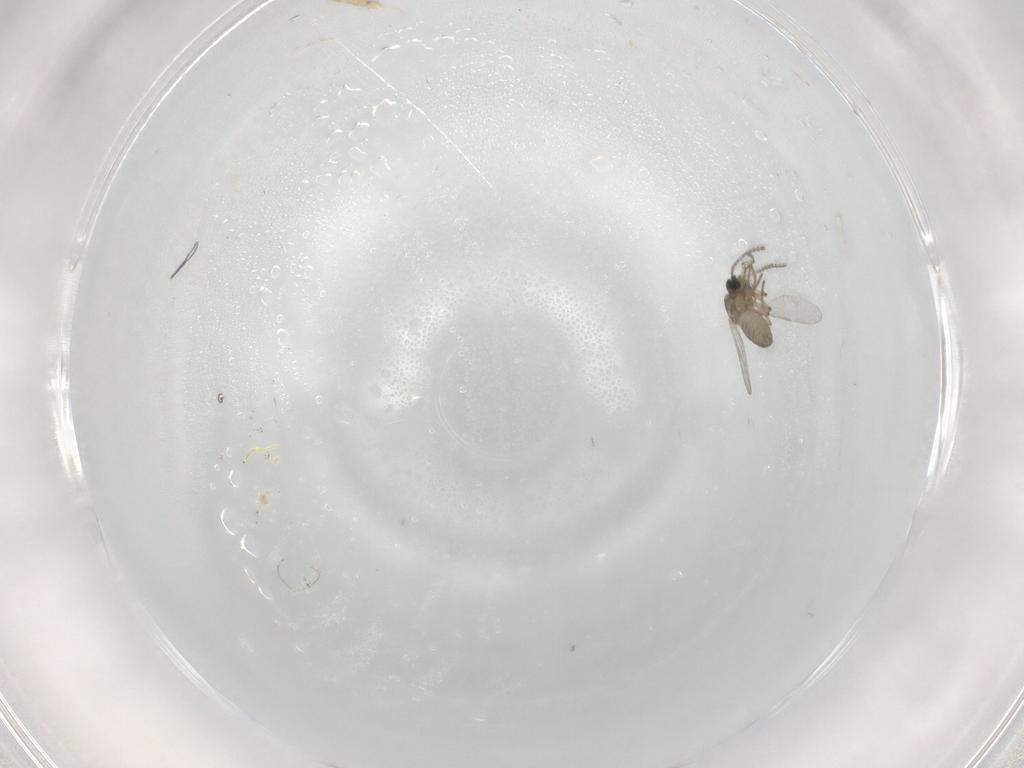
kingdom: Animalia
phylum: Arthropoda
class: Insecta
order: Diptera
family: Chironomidae
